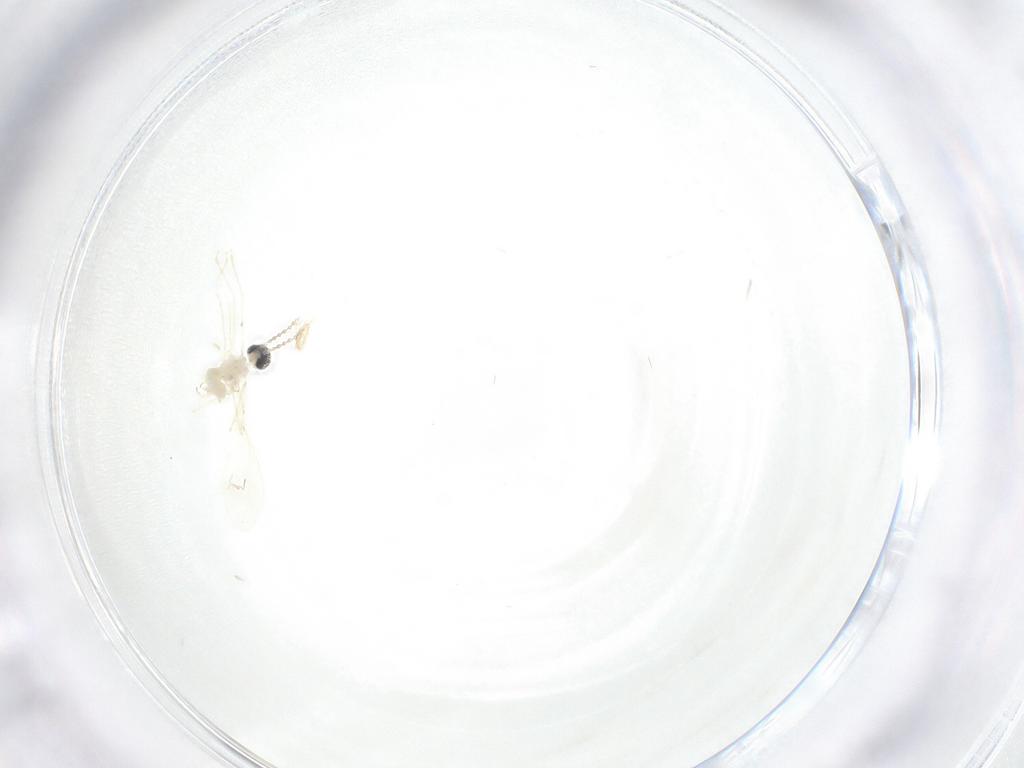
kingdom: Animalia
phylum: Arthropoda
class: Insecta
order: Diptera
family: Cecidomyiidae
